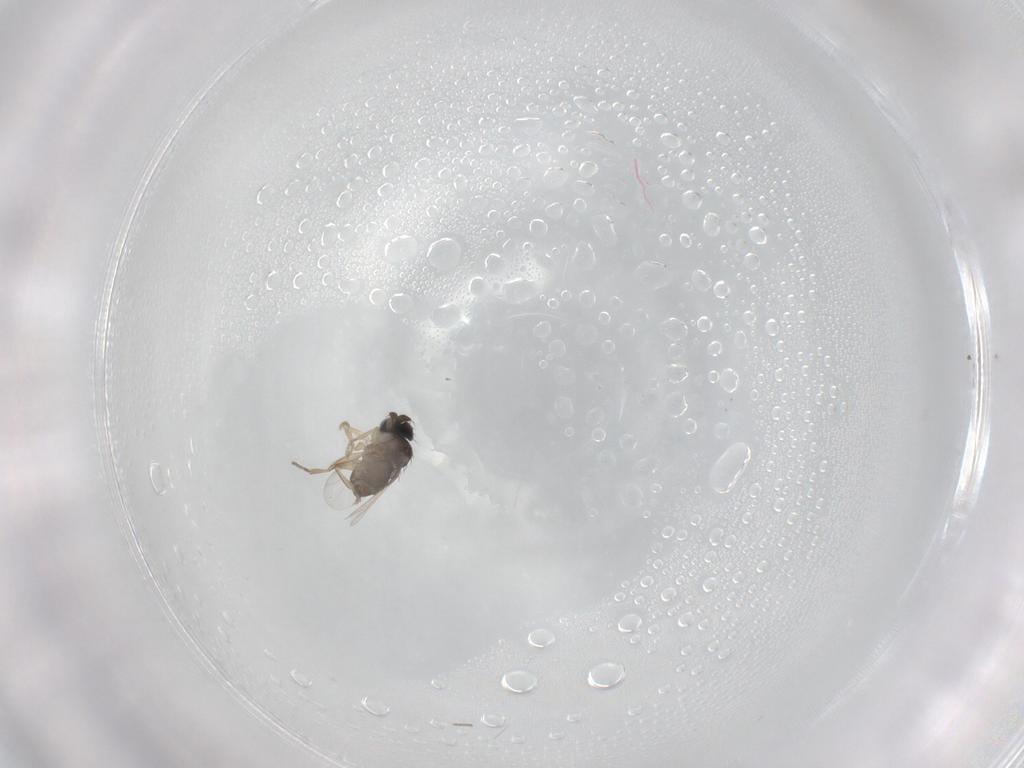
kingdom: Animalia
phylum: Arthropoda
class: Insecta
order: Diptera
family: Phoridae
